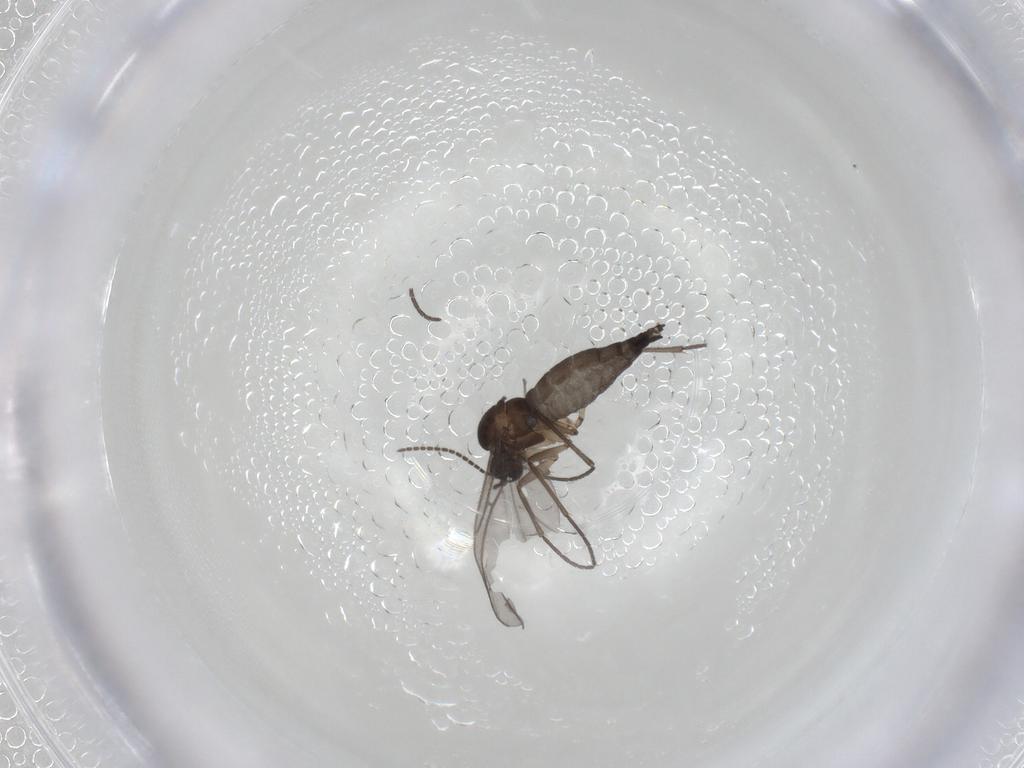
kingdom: Animalia
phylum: Arthropoda
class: Insecta
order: Diptera
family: Sciaridae
